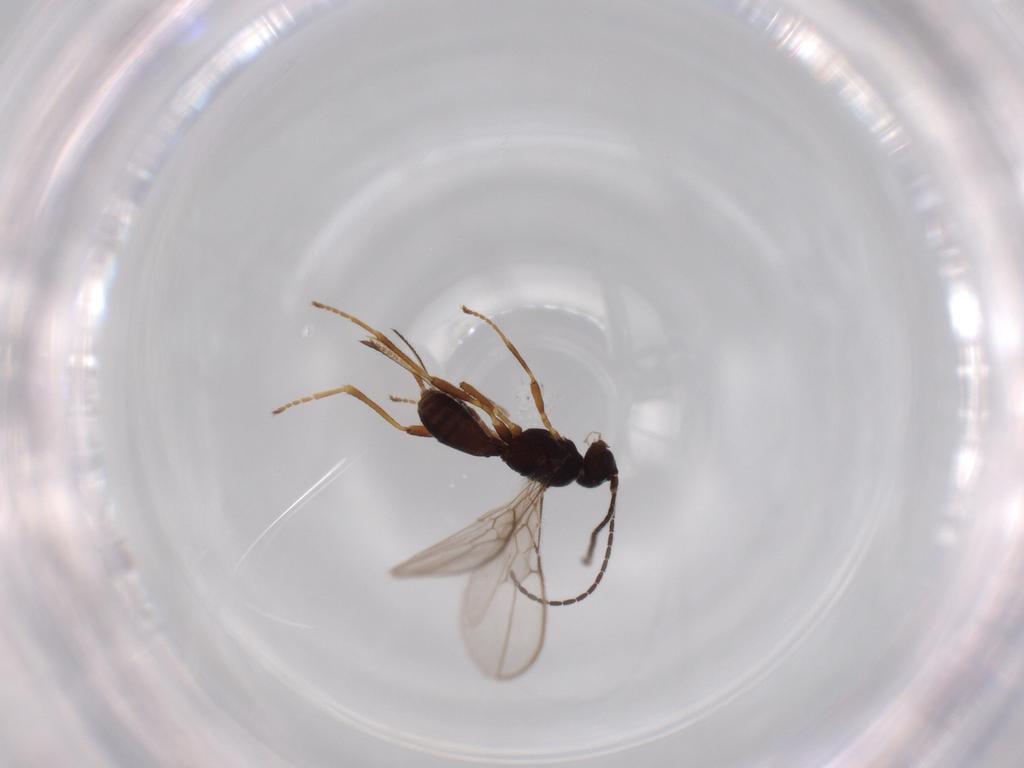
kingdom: Animalia
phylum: Arthropoda
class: Insecta
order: Hymenoptera
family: Braconidae
